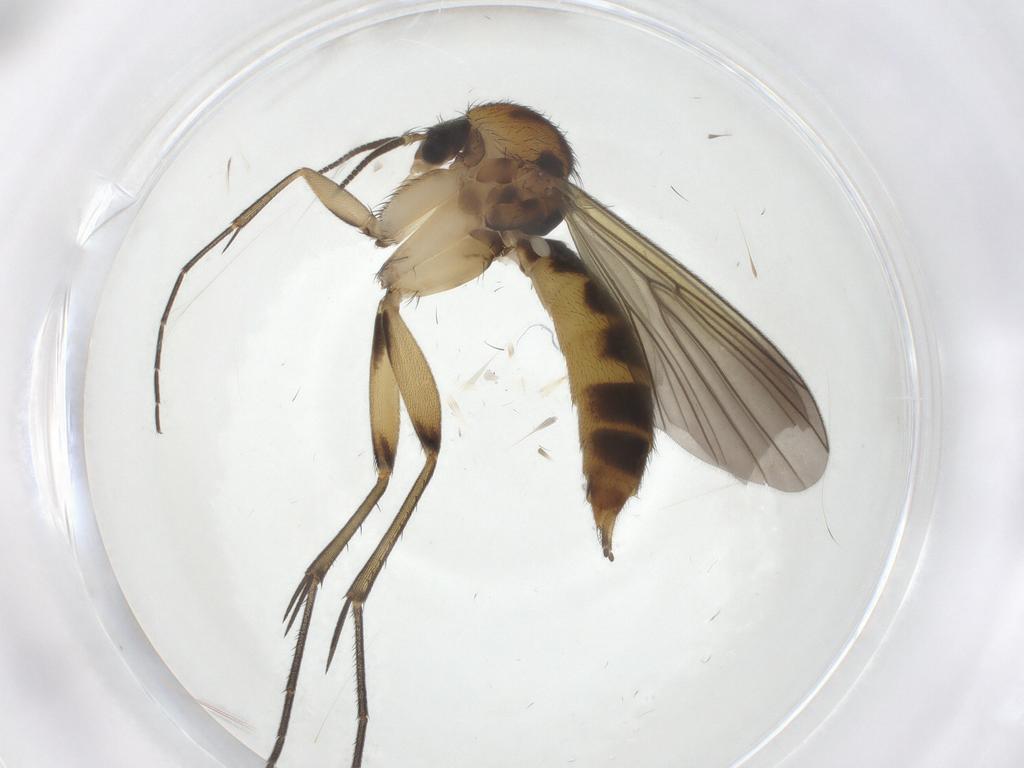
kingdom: Animalia
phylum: Arthropoda
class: Insecta
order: Diptera
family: Mycetophilidae
